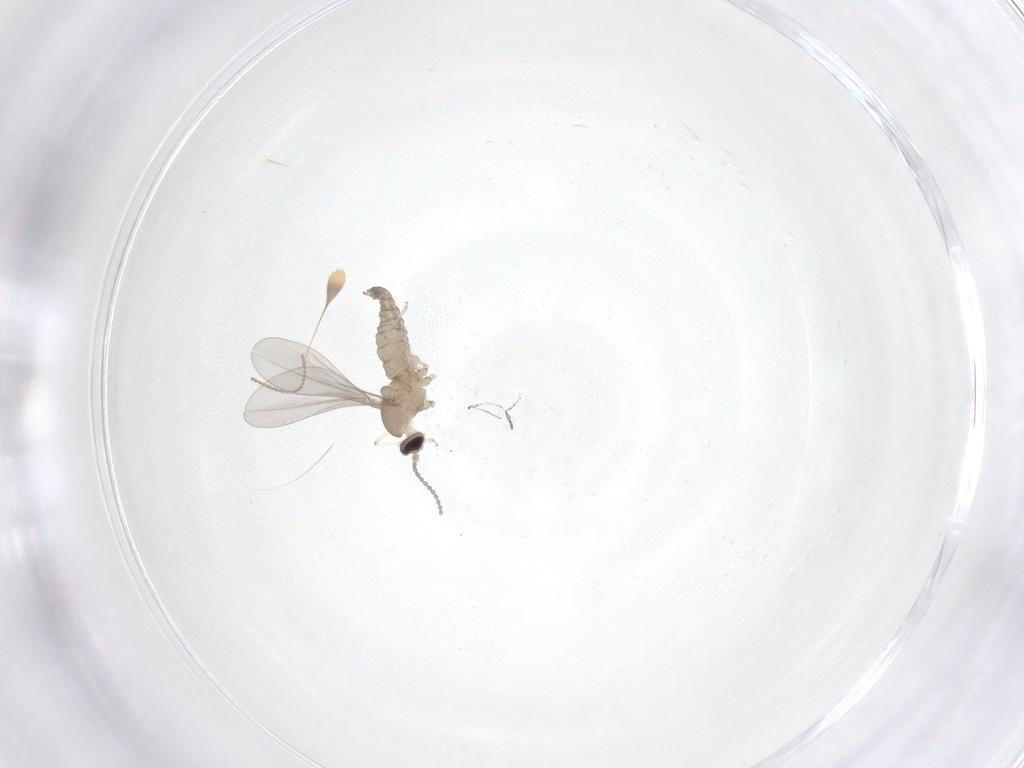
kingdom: Animalia
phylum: Arthropoda
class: Insecta
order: Diptera
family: Cecidomyiidae
